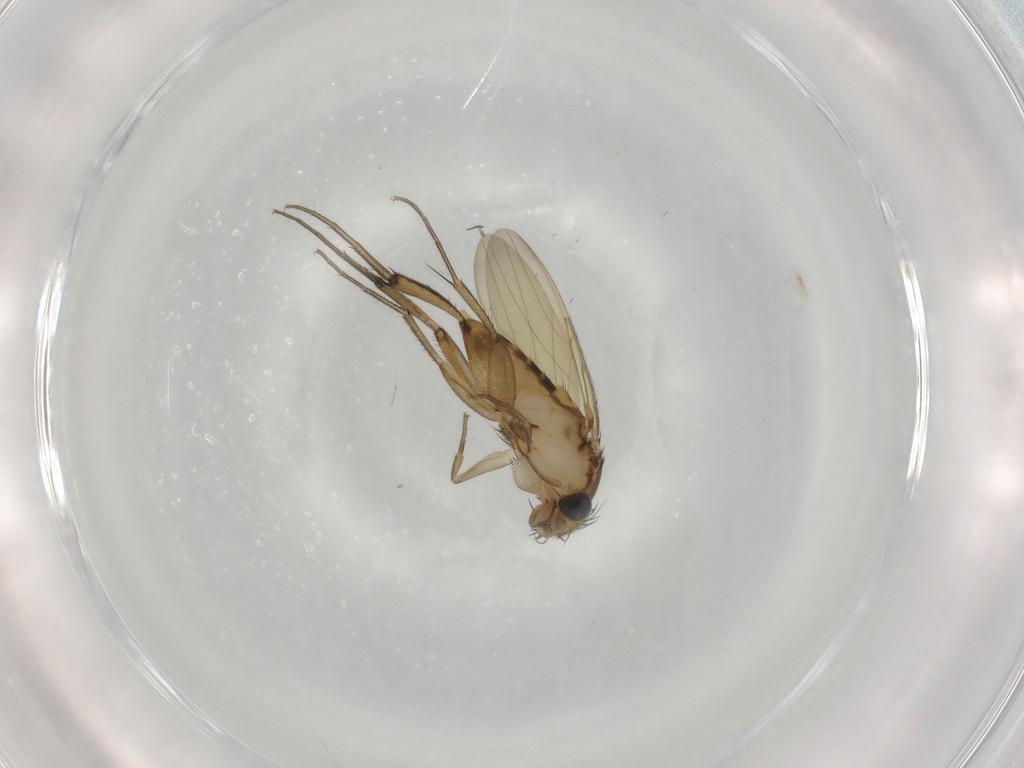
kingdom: Animalia
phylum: Arthropoda
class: Insecta
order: Diptera
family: Phoridae
